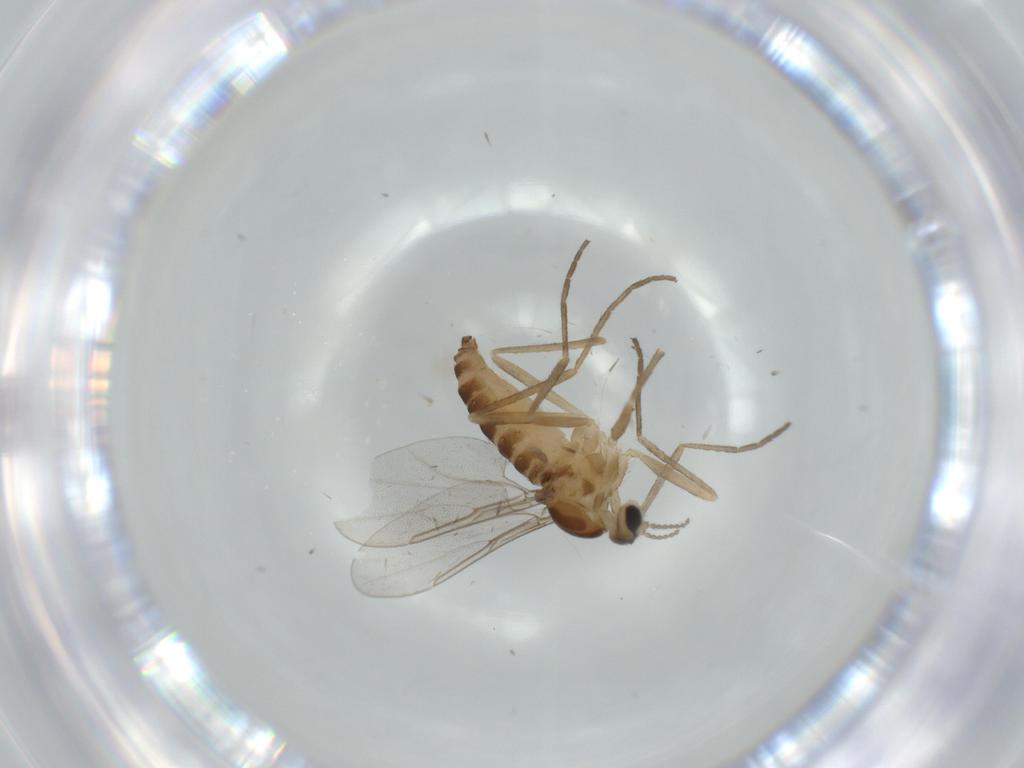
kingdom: Animalia
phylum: Arthropoda
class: Insecta
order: Diptera
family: Cecidomyiidae
